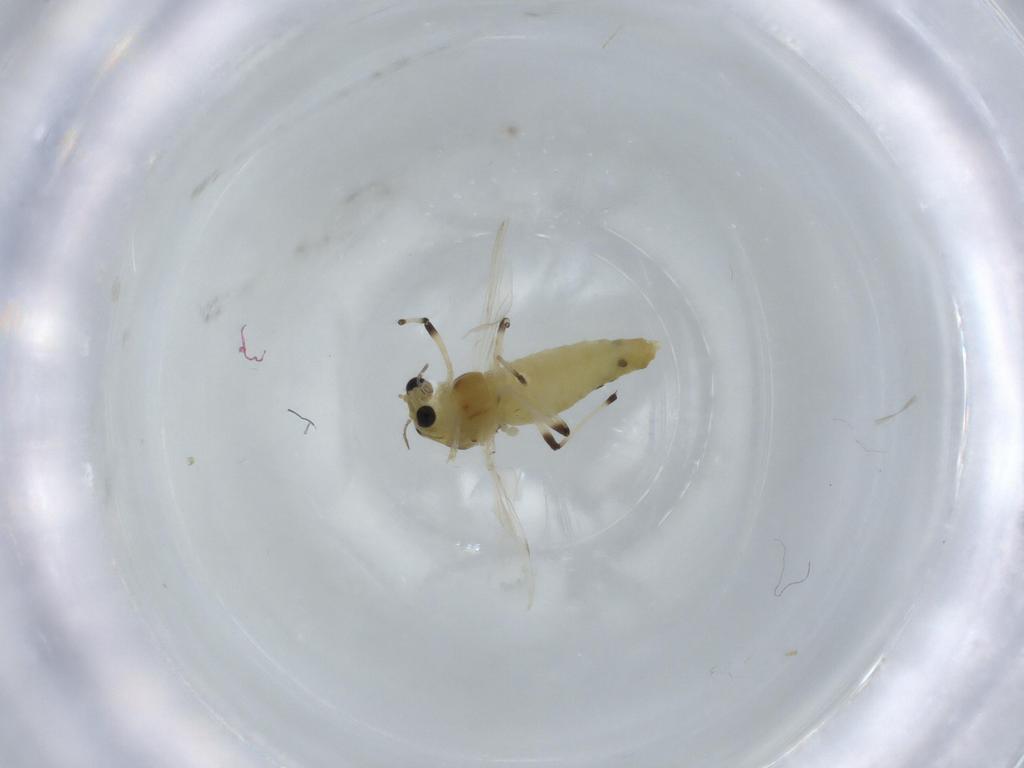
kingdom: Animalia
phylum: Arthropoda
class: Insecta
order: Diptera
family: Chironomidae
